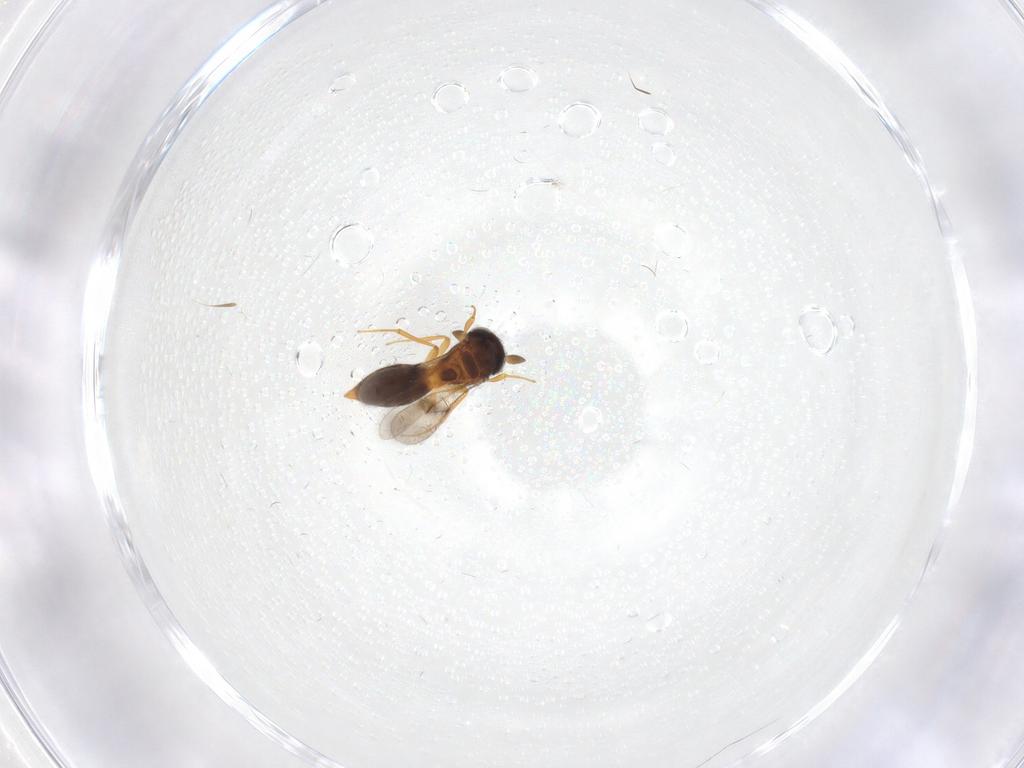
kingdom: Animalia
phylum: Arthropoda
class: Insecta
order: Hymenoptera
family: Scelionidae
